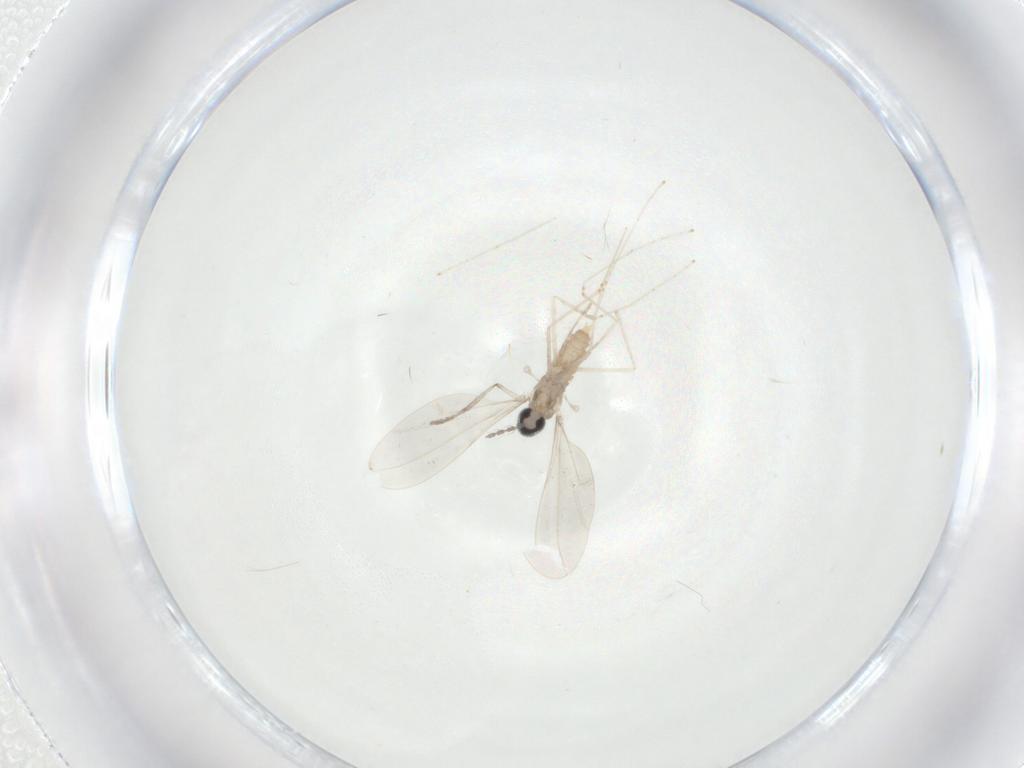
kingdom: Animalia
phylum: Arthropoda
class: Insecta
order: Diptera
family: Cecidomyiidae
